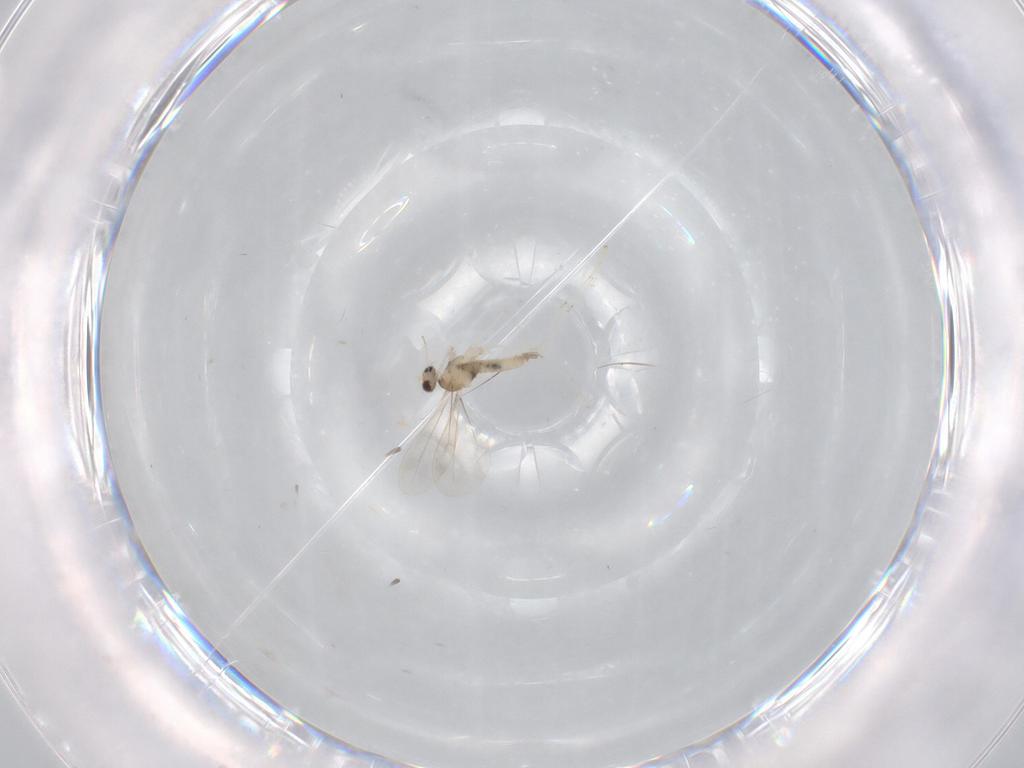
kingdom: Animalia
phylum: Arthropoda
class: Insecta
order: Diptera
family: Cecidomyiidae
